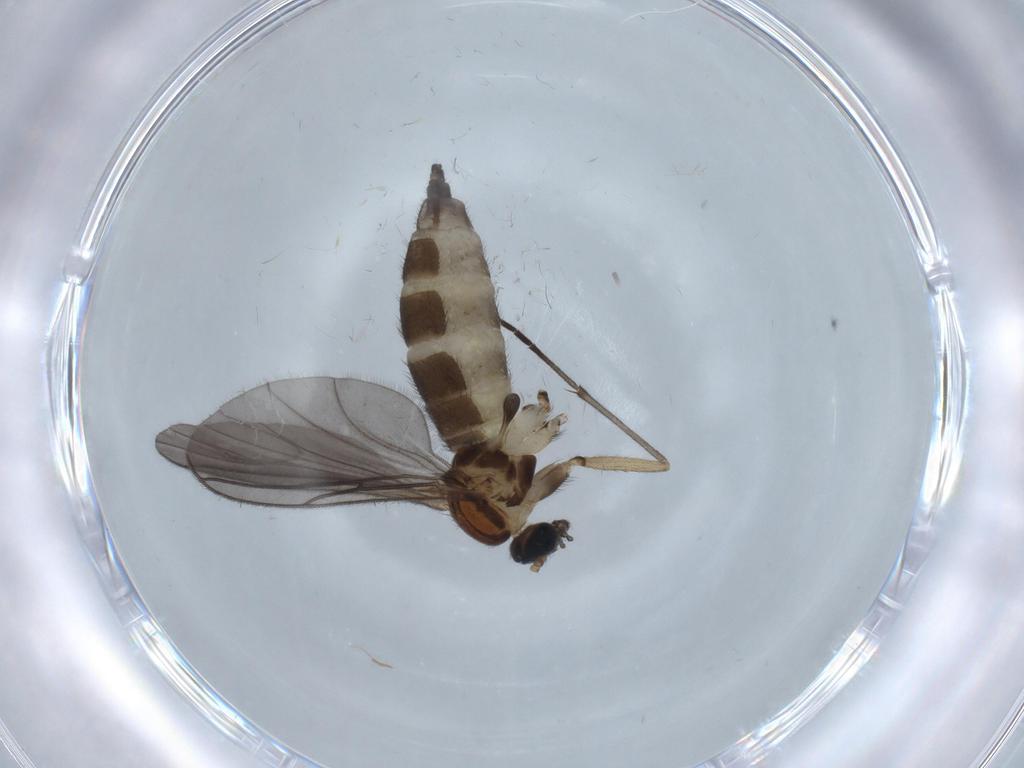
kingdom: Animalia
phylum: Arthropoda
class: Insecta
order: Diptera
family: Sciaridae
